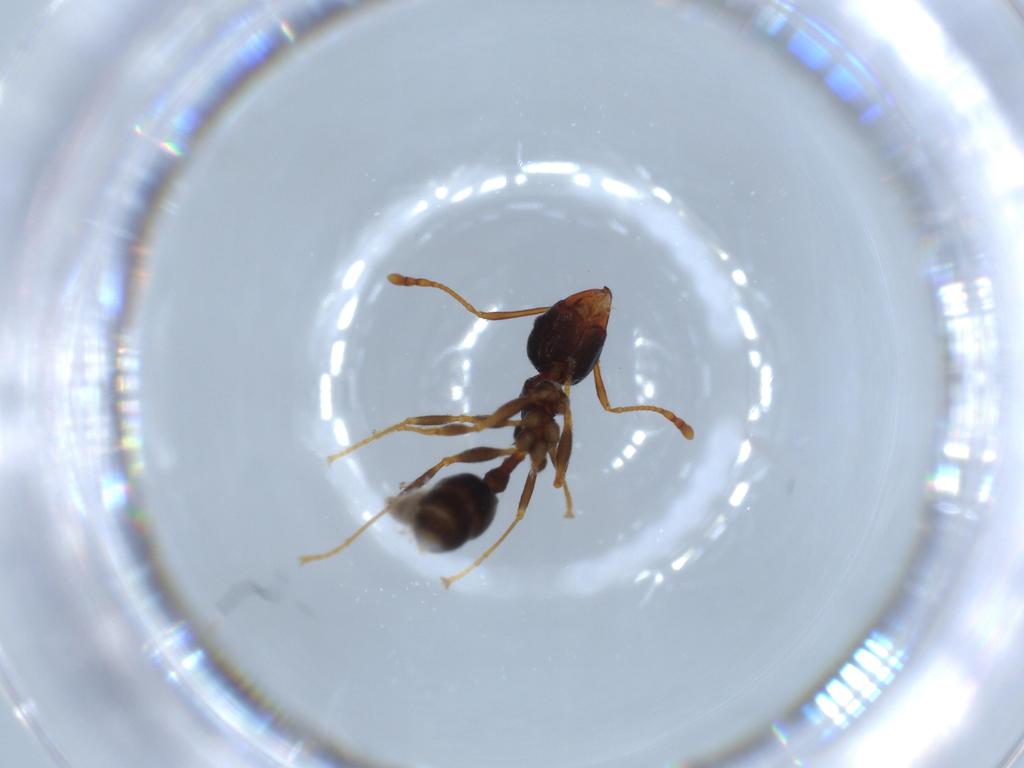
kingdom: Animalia
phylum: Arthropoda
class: Insecta
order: Hymenoptera
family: Formicidae
